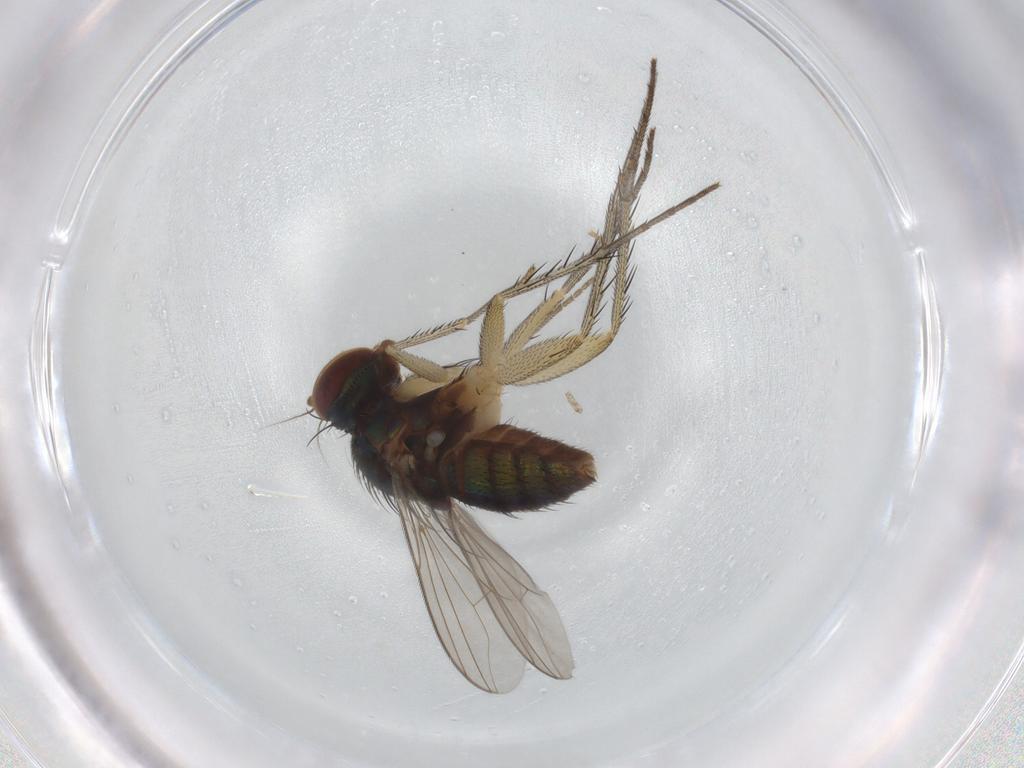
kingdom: Animalia
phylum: Arthropoda
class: Insecta
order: Diptera
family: Dolichopodidae
